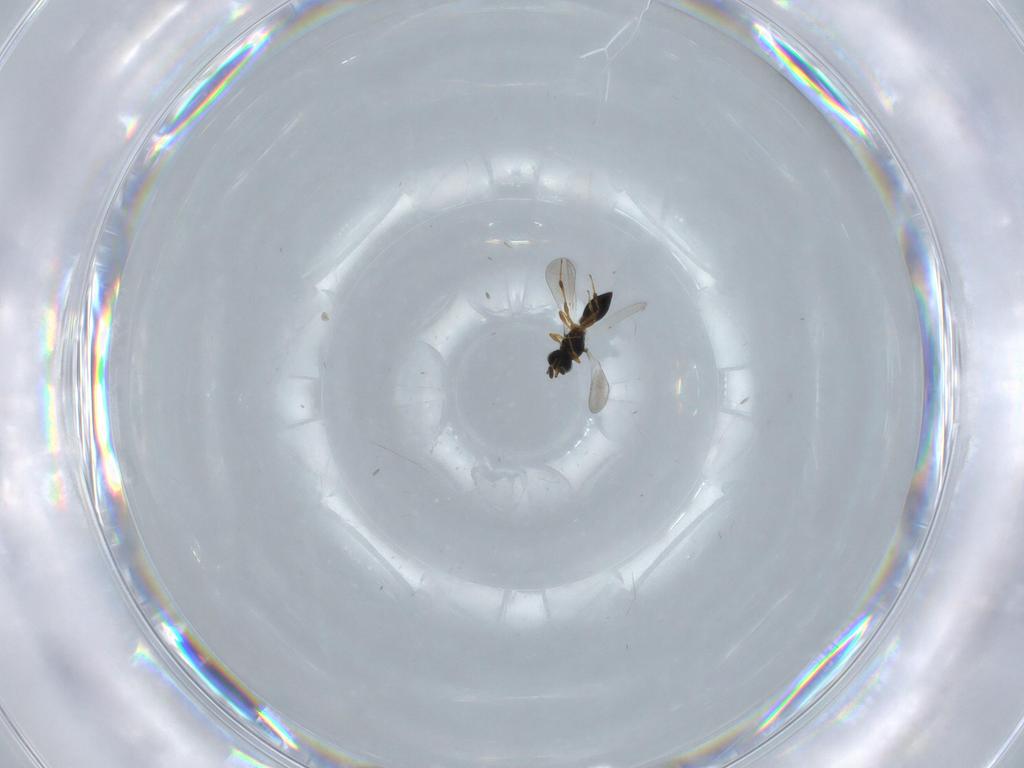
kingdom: Animalia
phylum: Arthropoda
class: Insecta
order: Hymenoptera
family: Platygastridae
